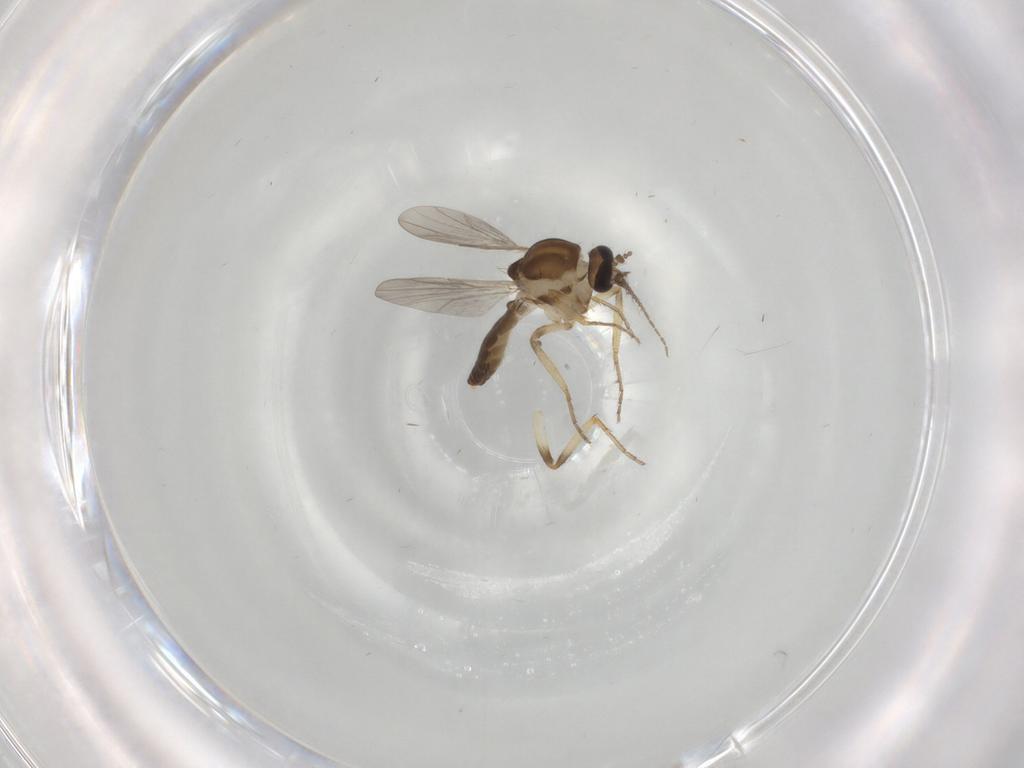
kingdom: Animalia
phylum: Arthropoda
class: Insecta
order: Diptera
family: Ceratopogonidae
